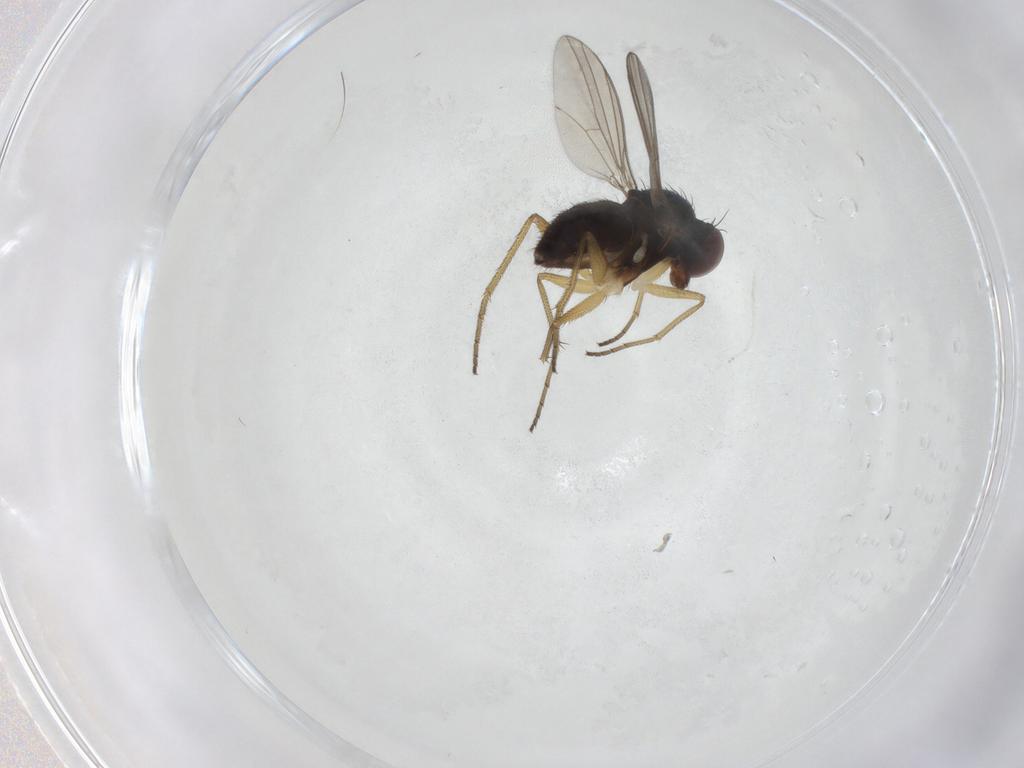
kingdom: Animalia
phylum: Arthropoda
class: Insecta
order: Diptera
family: Dolichopodidae
